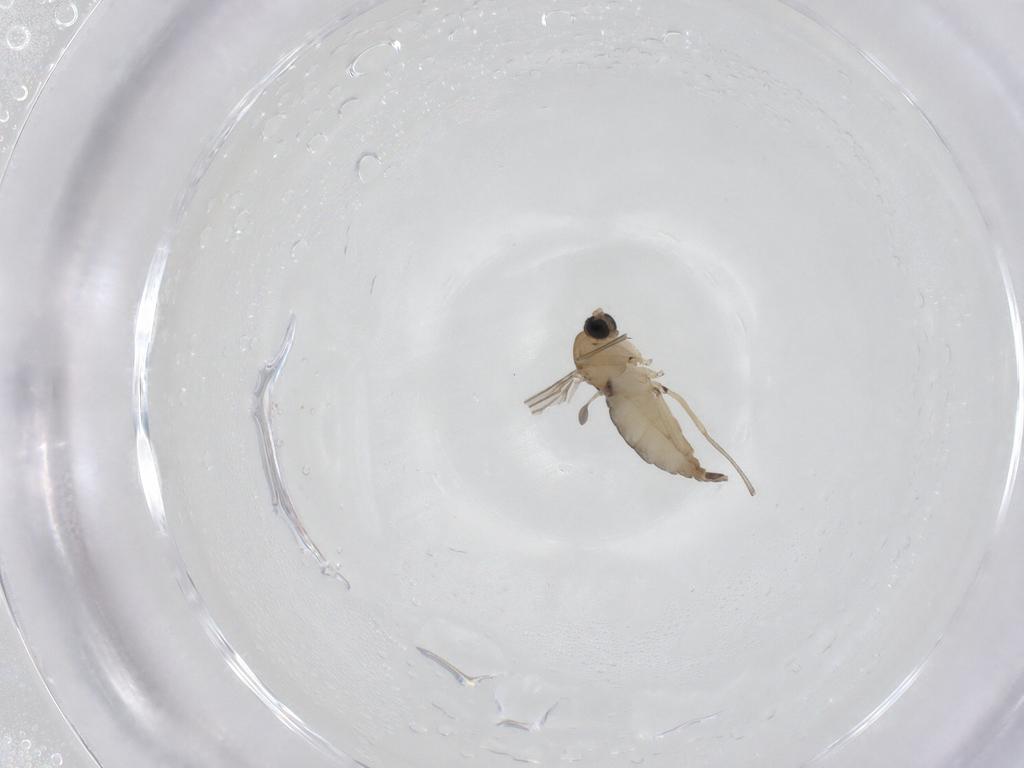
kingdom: Animalia
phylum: Arthropoda
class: Insecta
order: Diptera
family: Sciaridae
